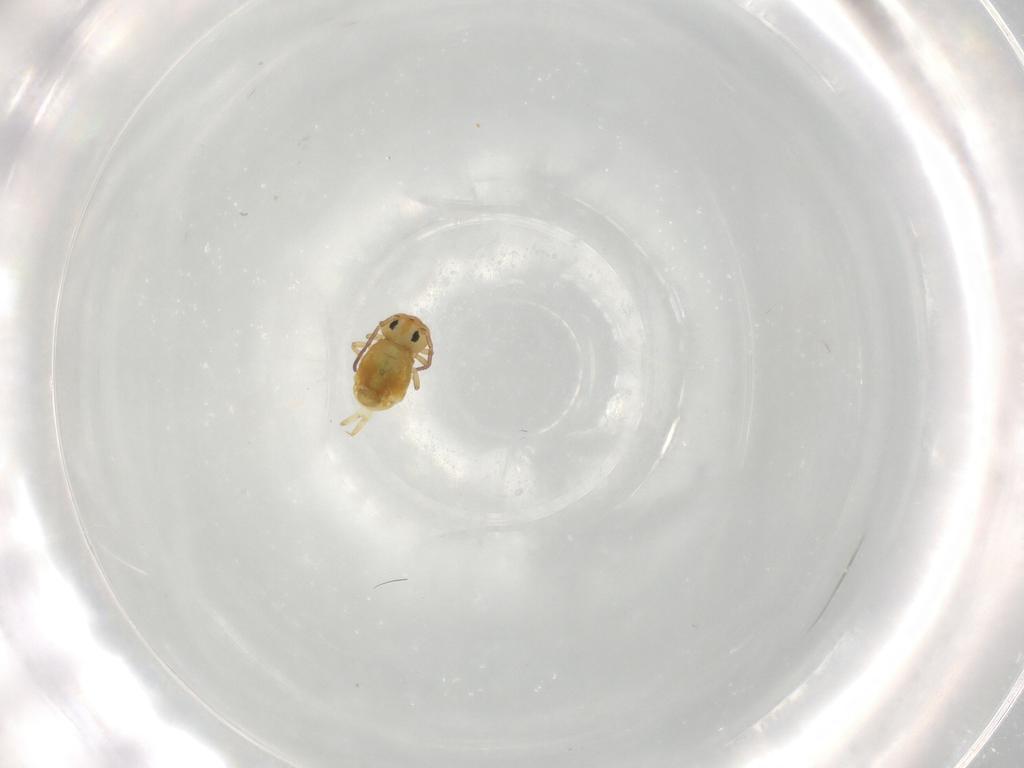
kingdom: Animalia
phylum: Arthropoda
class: Collembola
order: Symphypleona
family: Bourletiellidae
